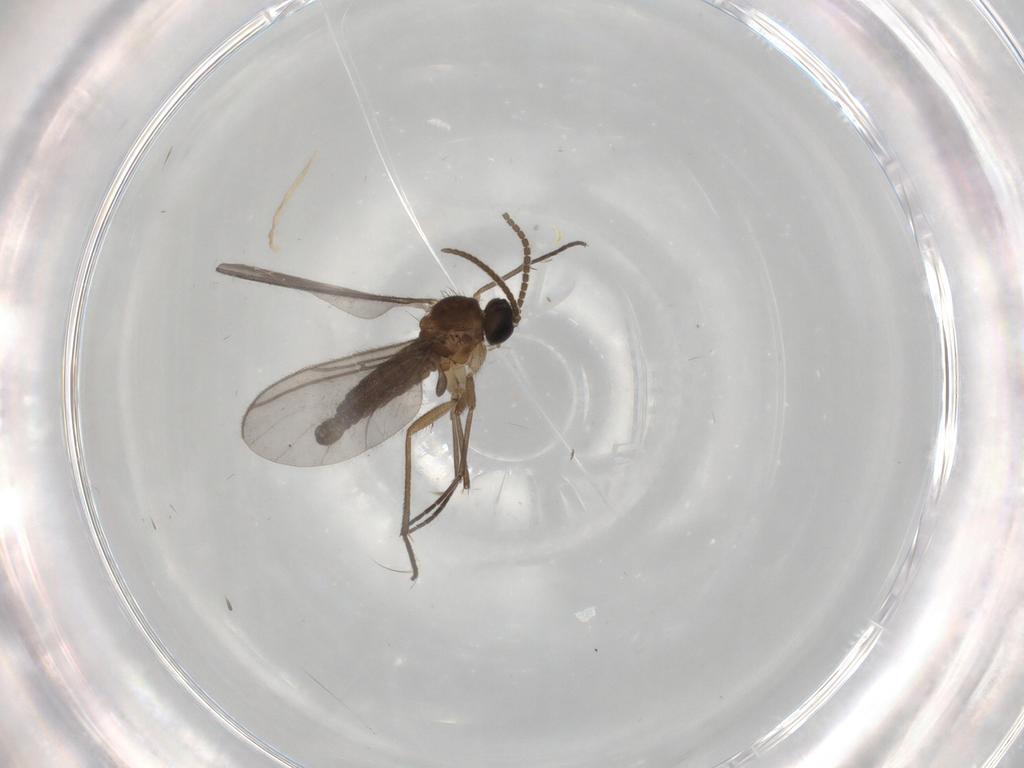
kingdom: Animalia
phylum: Arthropoda
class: Insecta
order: Diptera
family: Sciaridae
